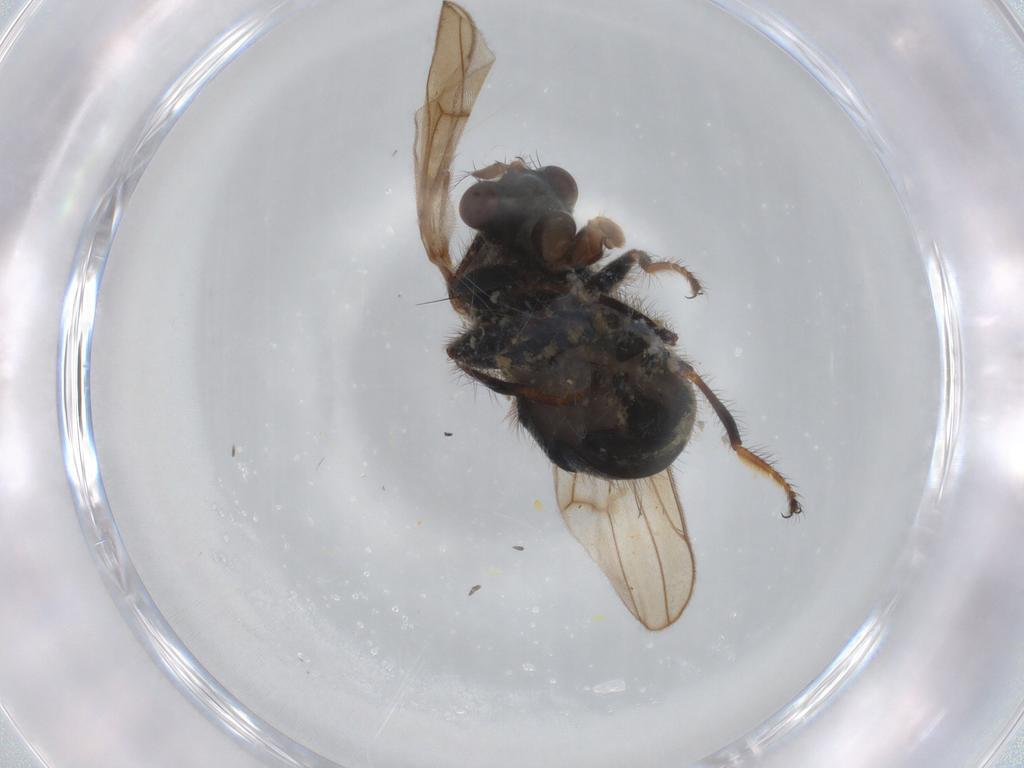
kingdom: Animalia
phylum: Arthropoda
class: Insecta
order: Diptera
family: Ephydridae
